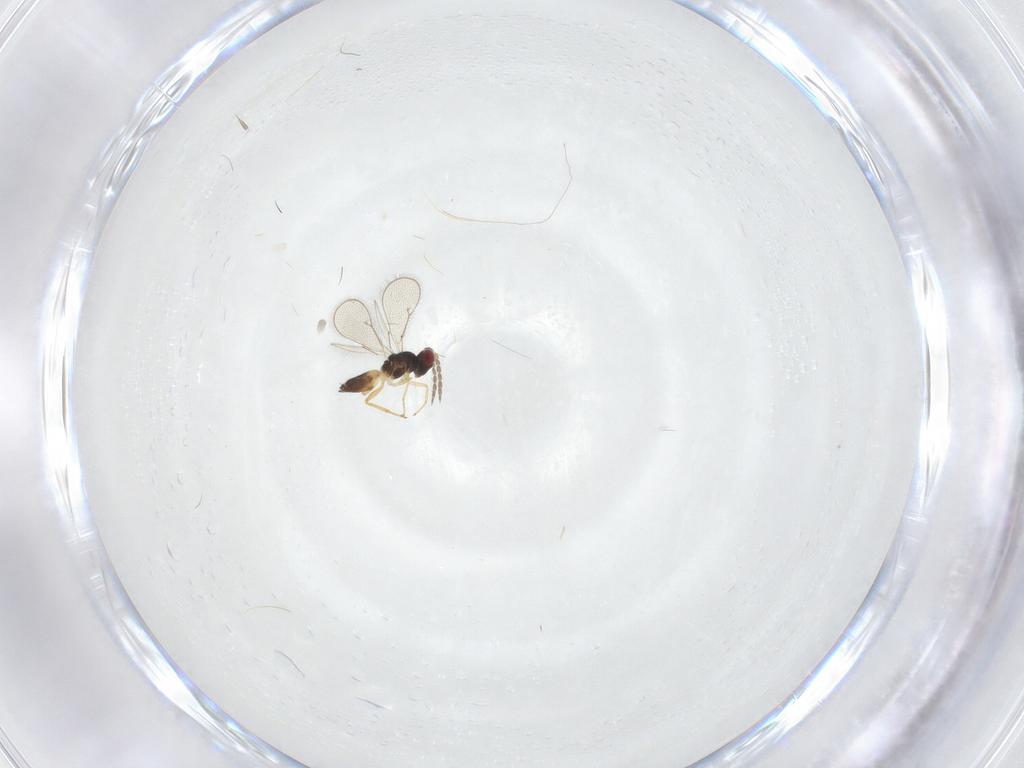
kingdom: Animalia
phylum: Arthropoda
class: Insecta
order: Hymenoptera
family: Eulophidae
